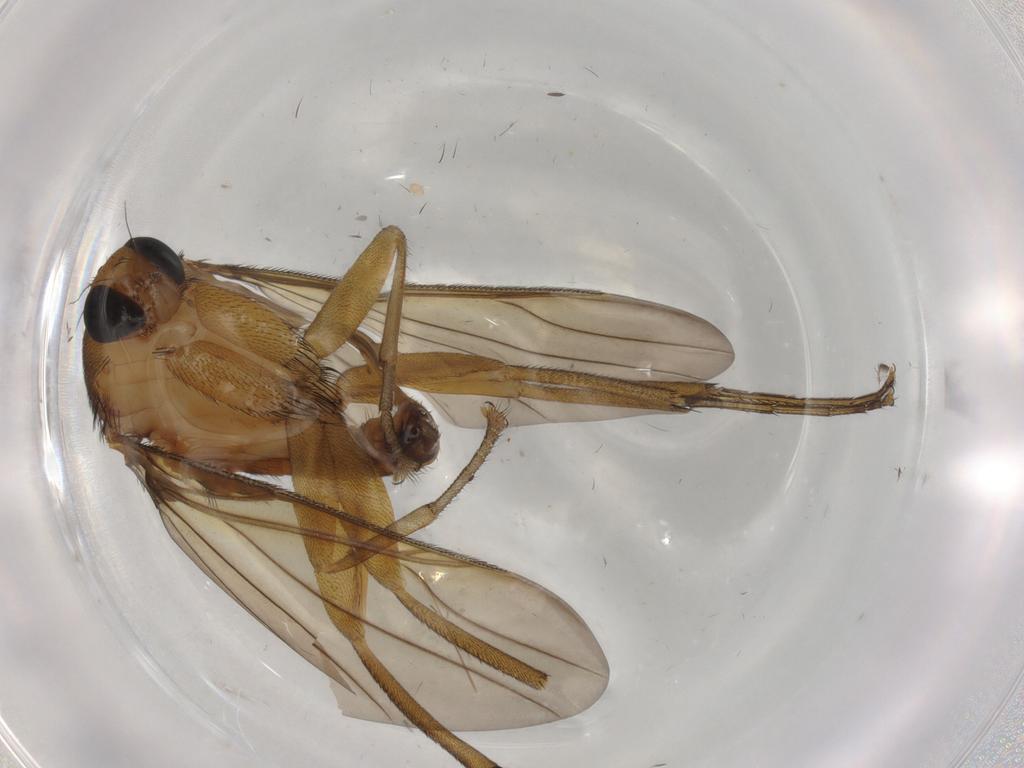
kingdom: Animalia
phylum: Arthropoda
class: Insecta
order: Diptera
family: Phoridae
